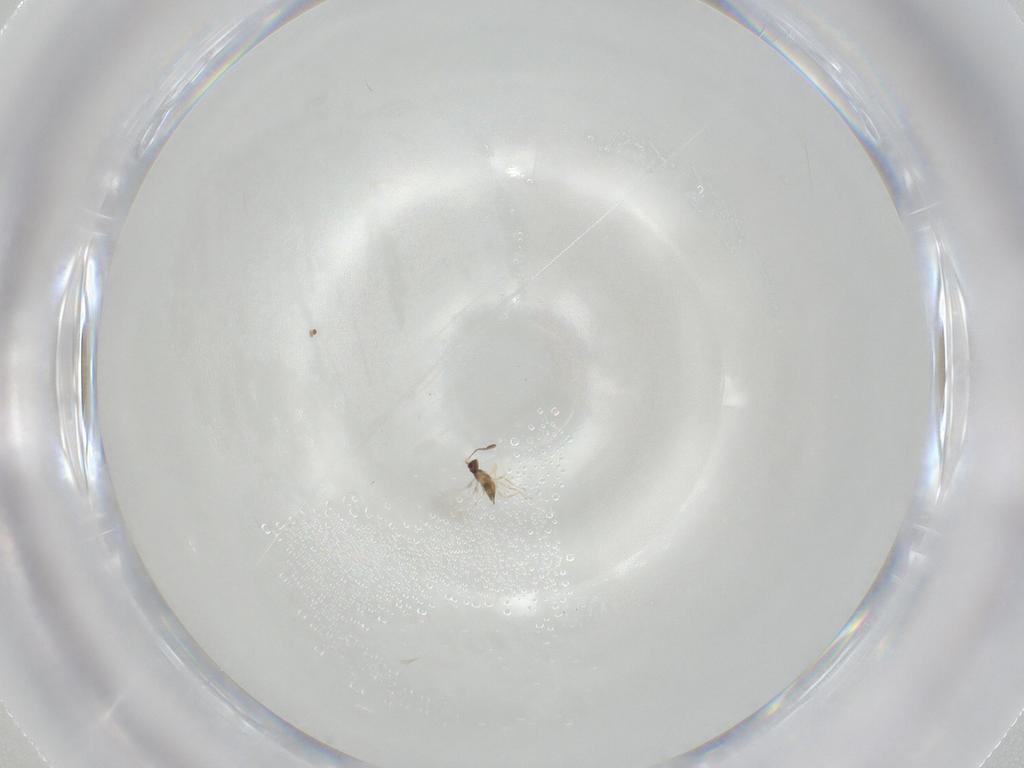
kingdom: Animalia
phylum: Arthropoda
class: Insecta
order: Hymenoptera
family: Mymaridae
